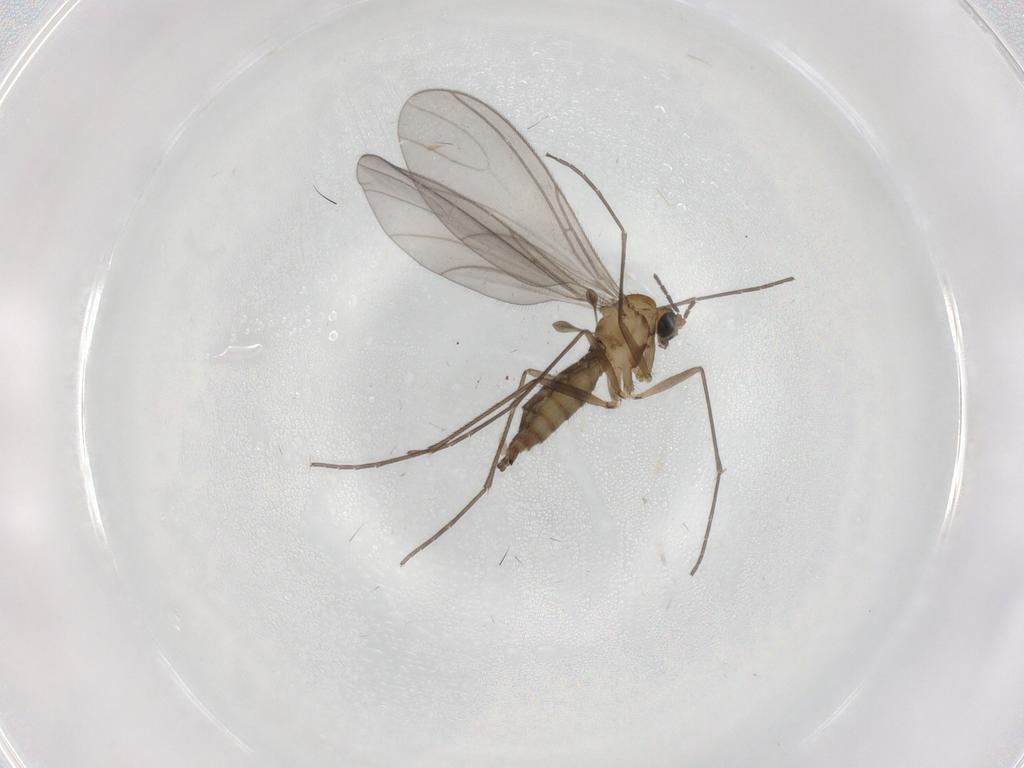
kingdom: Animalia
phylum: Arthropoda
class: Insecta
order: Diptera
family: Sciaridae
